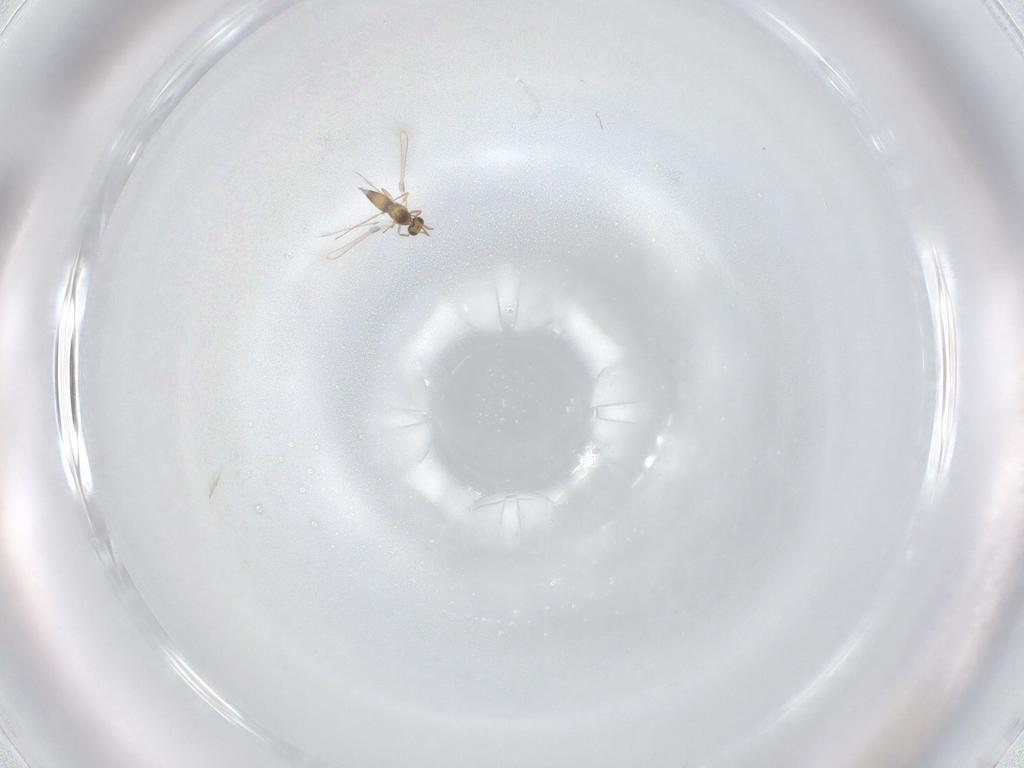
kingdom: Animalia
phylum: Arthropoda
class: Insecta
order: Hymenoptera
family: Mymaridae
